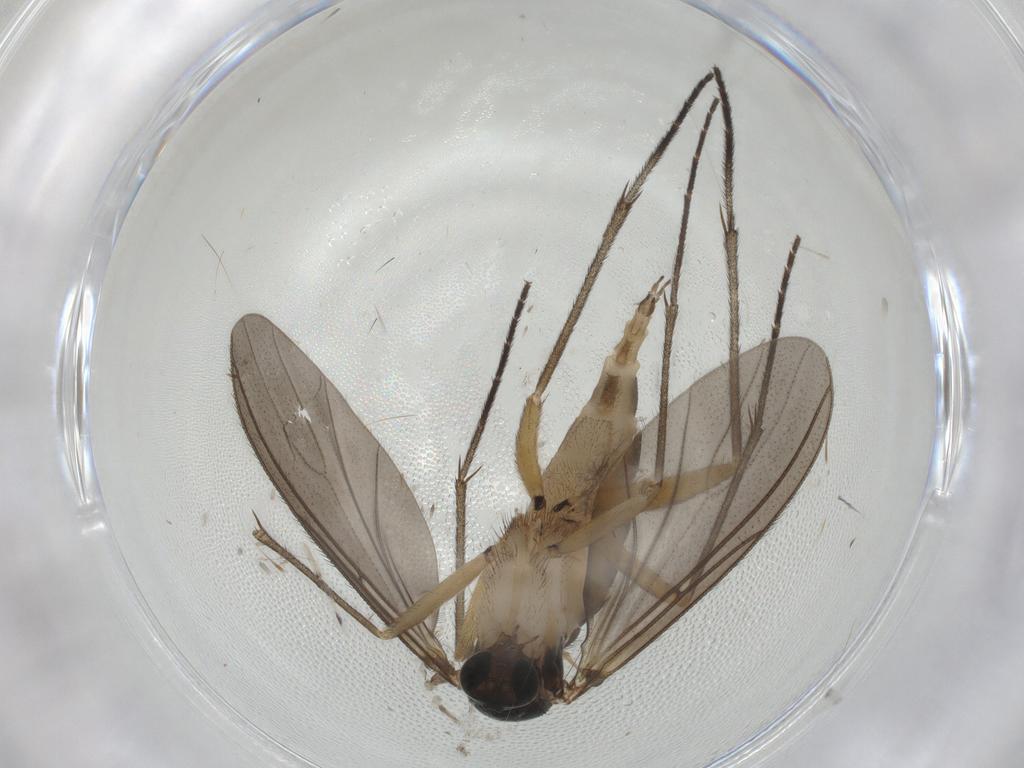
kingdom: Animalia
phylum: Arthropoda
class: Insecta
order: Diptera
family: Sciaridae
